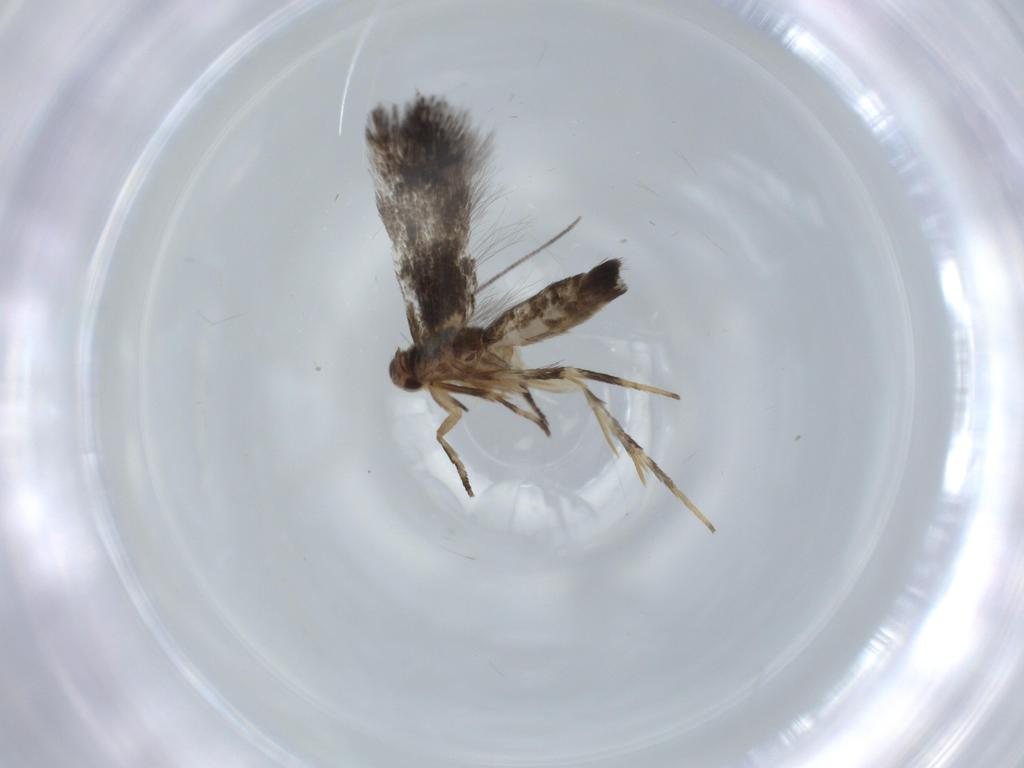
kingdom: Animalia
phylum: Arthropoda
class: Insecta
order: Lepidoptera
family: Cosmopterigidae
